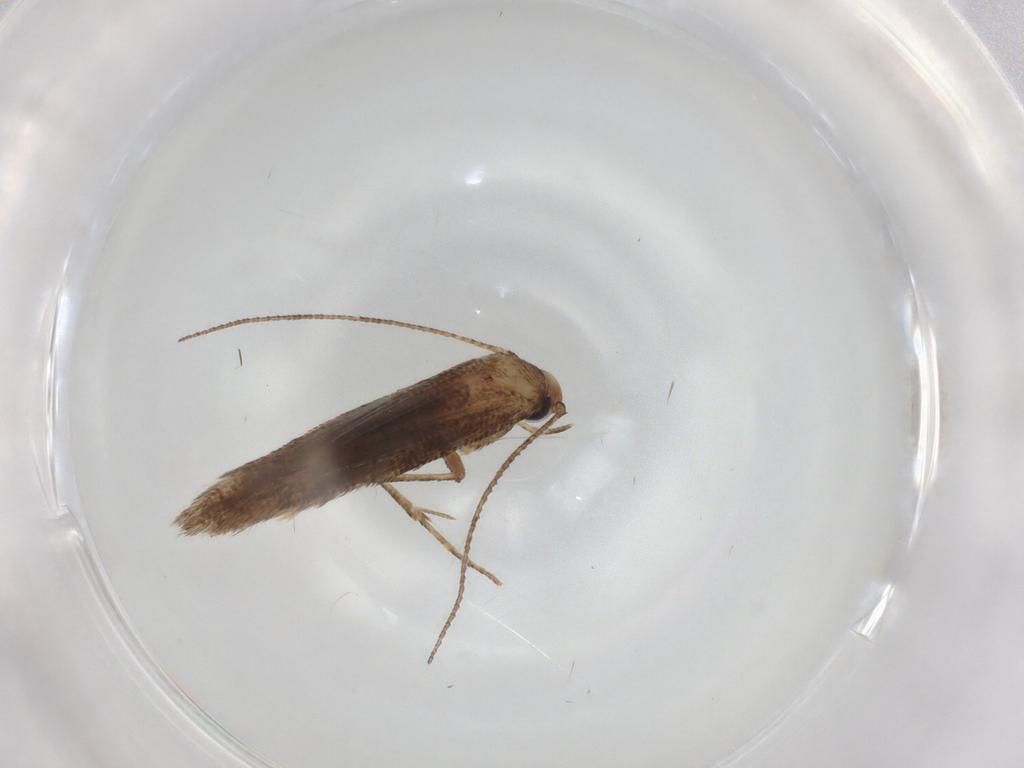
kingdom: Animalia
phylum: Arthropoda
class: Insecta
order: Lepidoptera
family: Gelechiidae
